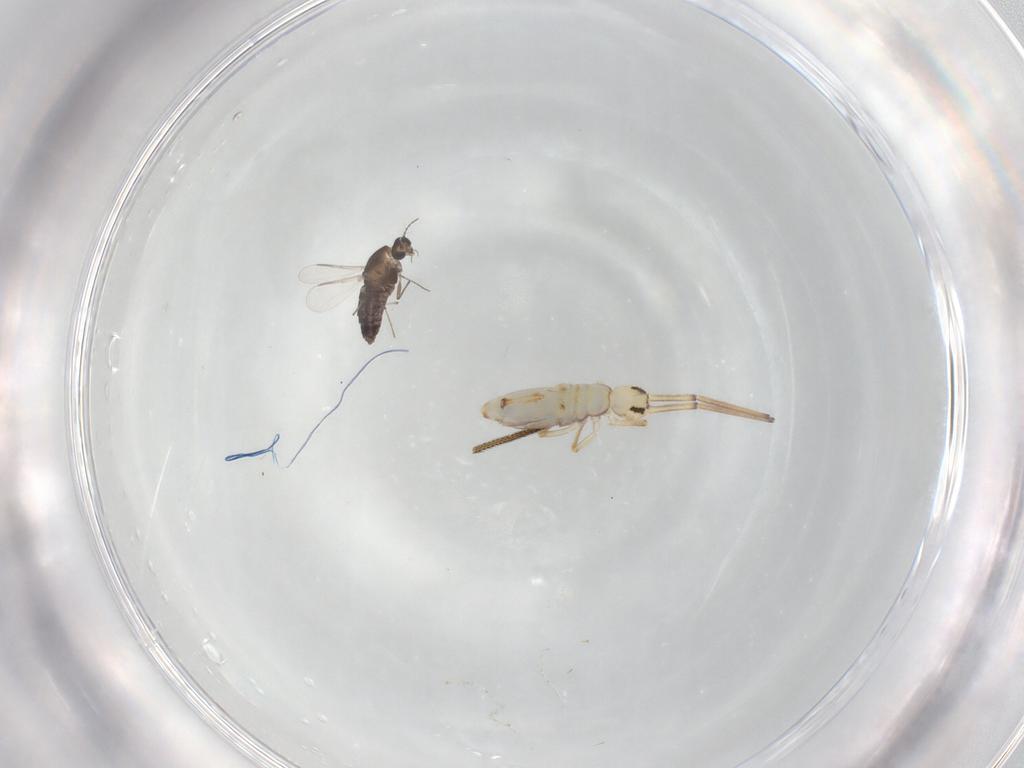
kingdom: Animalia
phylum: Arthropoda
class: Insecta
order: Diptera
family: Chironomidae
